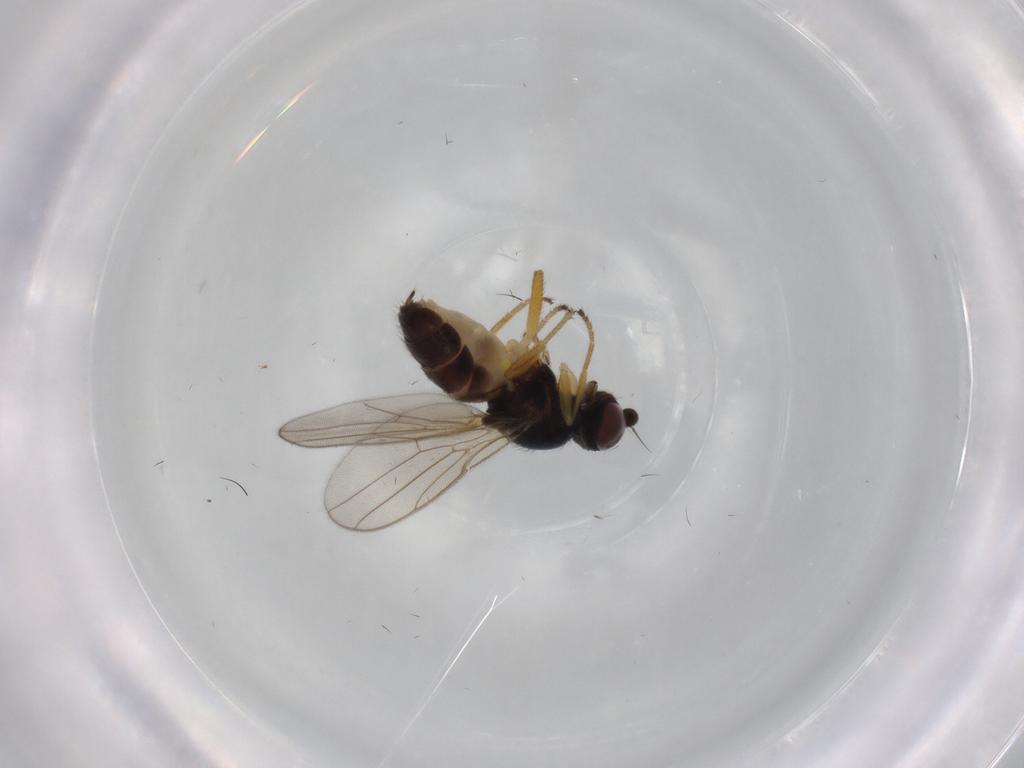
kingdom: Animalia
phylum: Arthropoda
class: Insecta
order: Diptera
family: Chloropidae
